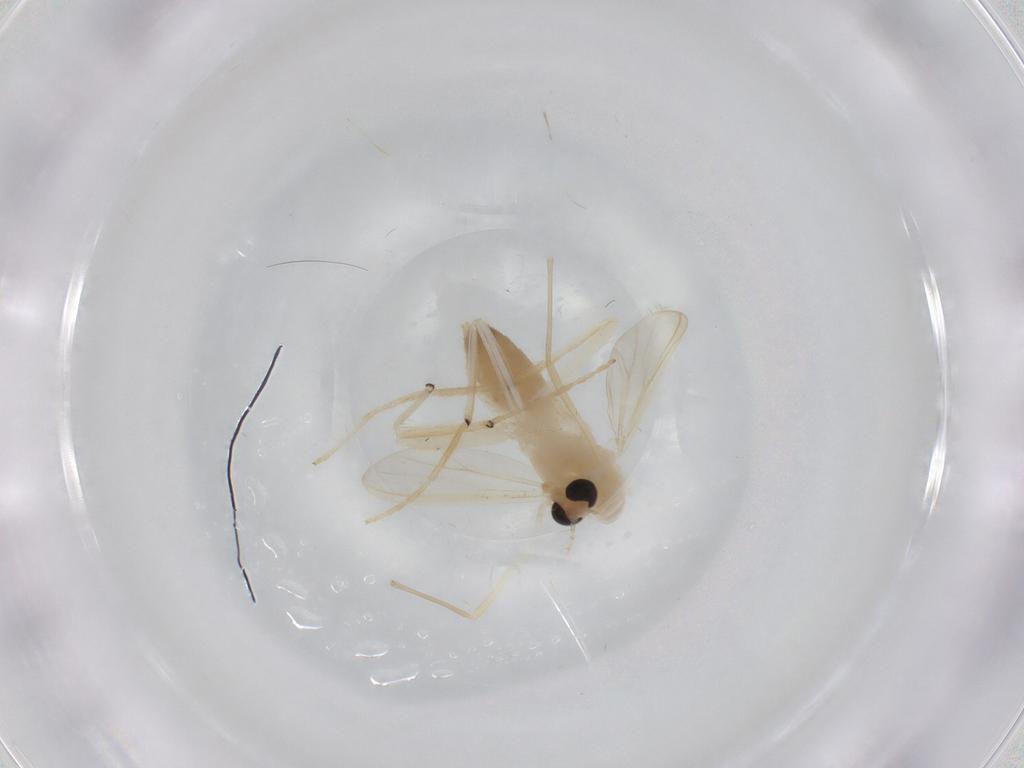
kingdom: Animalia
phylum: Arthropoda
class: Insecta
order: Diptera
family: Chironomidae
